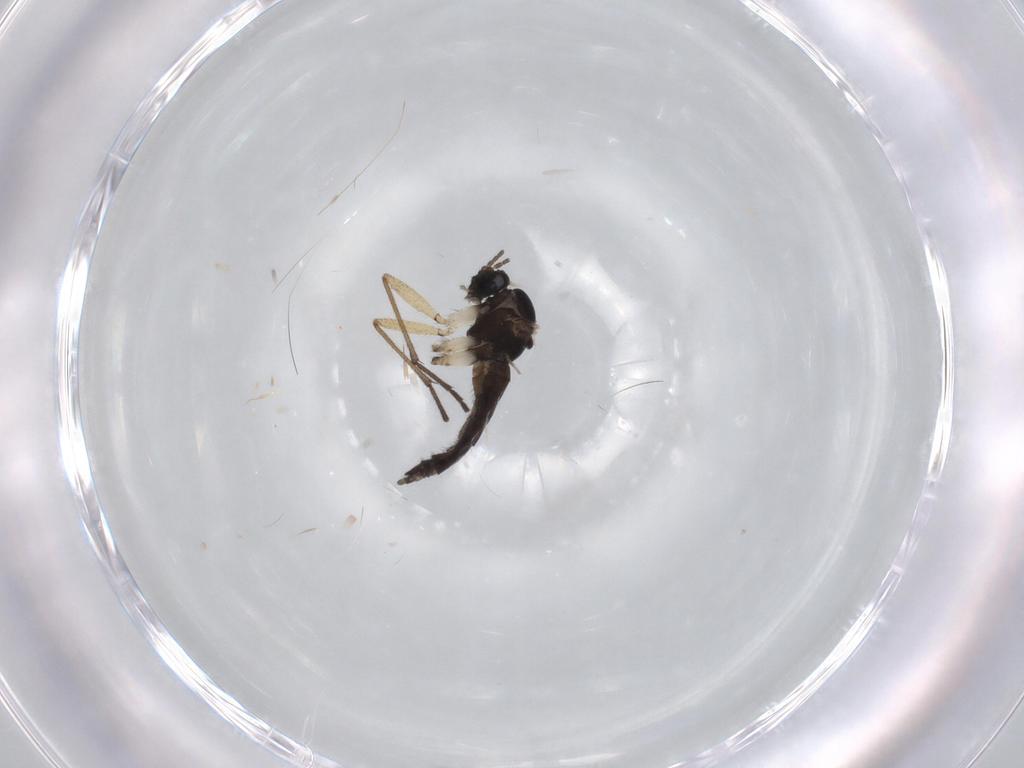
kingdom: Animalia
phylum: Arthropoda
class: Insecta
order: Diptera
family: Sciaridae
